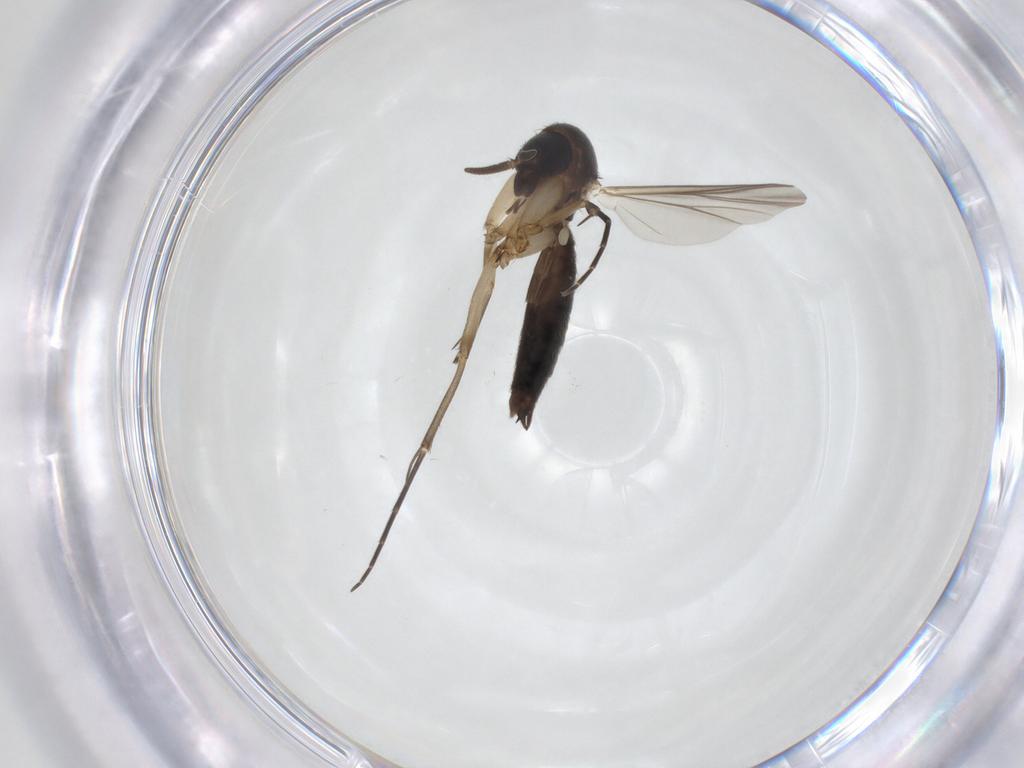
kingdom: Animalia
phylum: Arthropoda
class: Insecta
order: Diptera
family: Mycetophilidae
